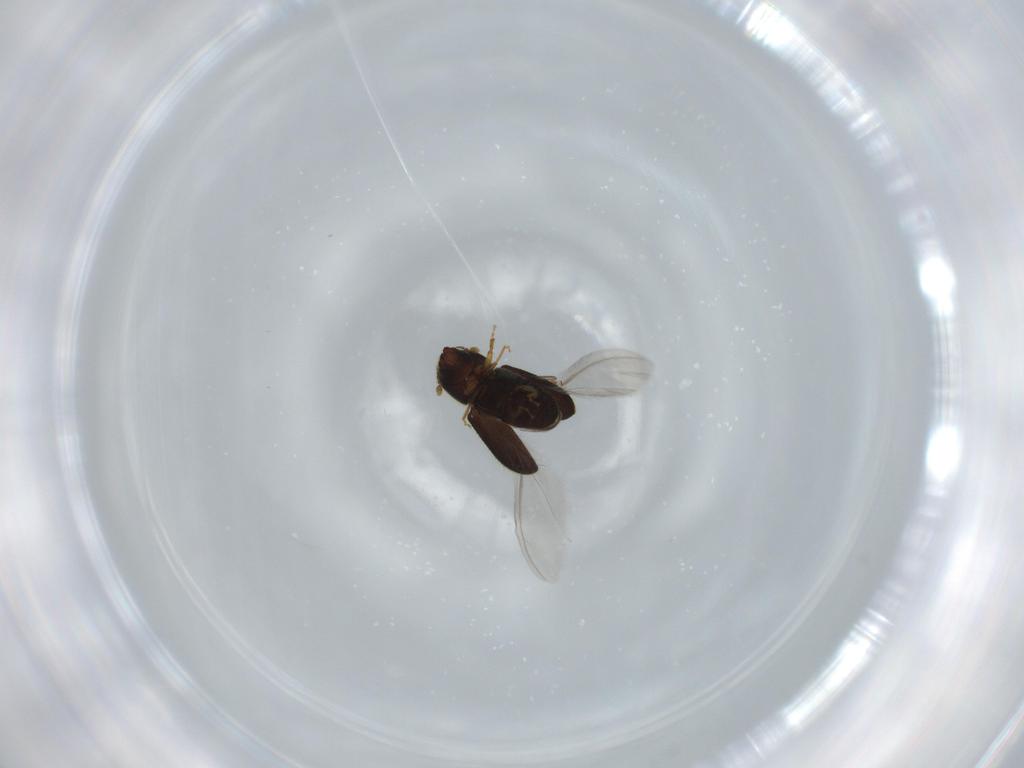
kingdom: Animalia
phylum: Arthropoda
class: Insecta
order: Coleoptera
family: Curculionidae
